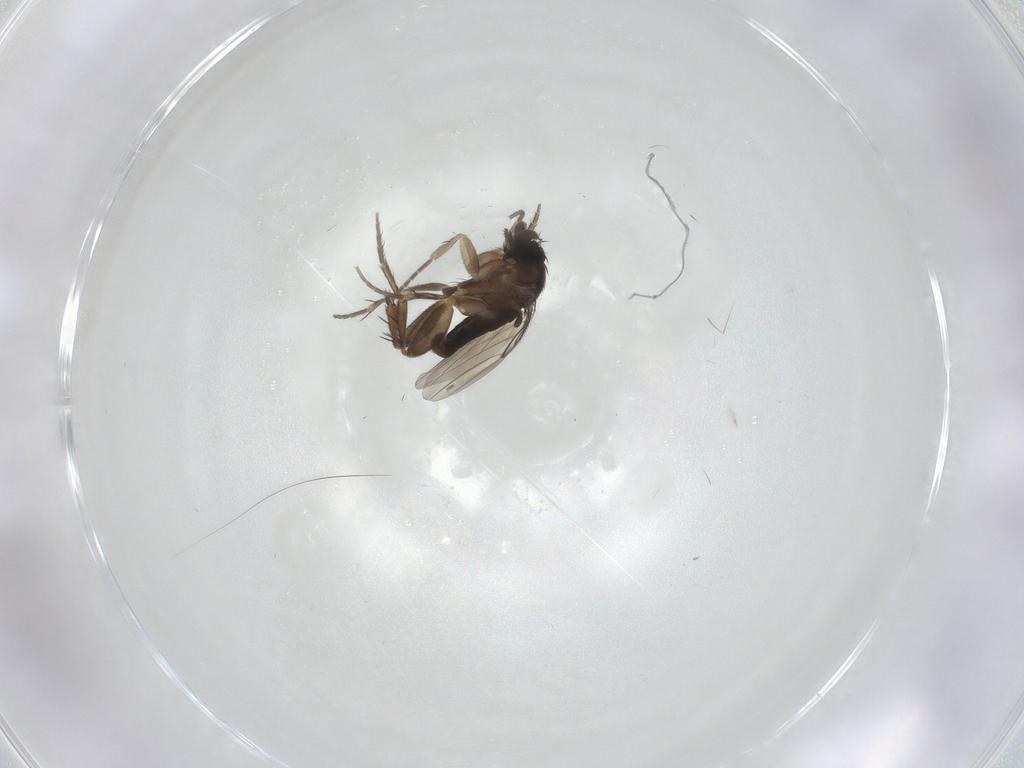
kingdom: Animalia
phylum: Arthropoda
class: Insecta
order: Diptera
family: Phoridae
